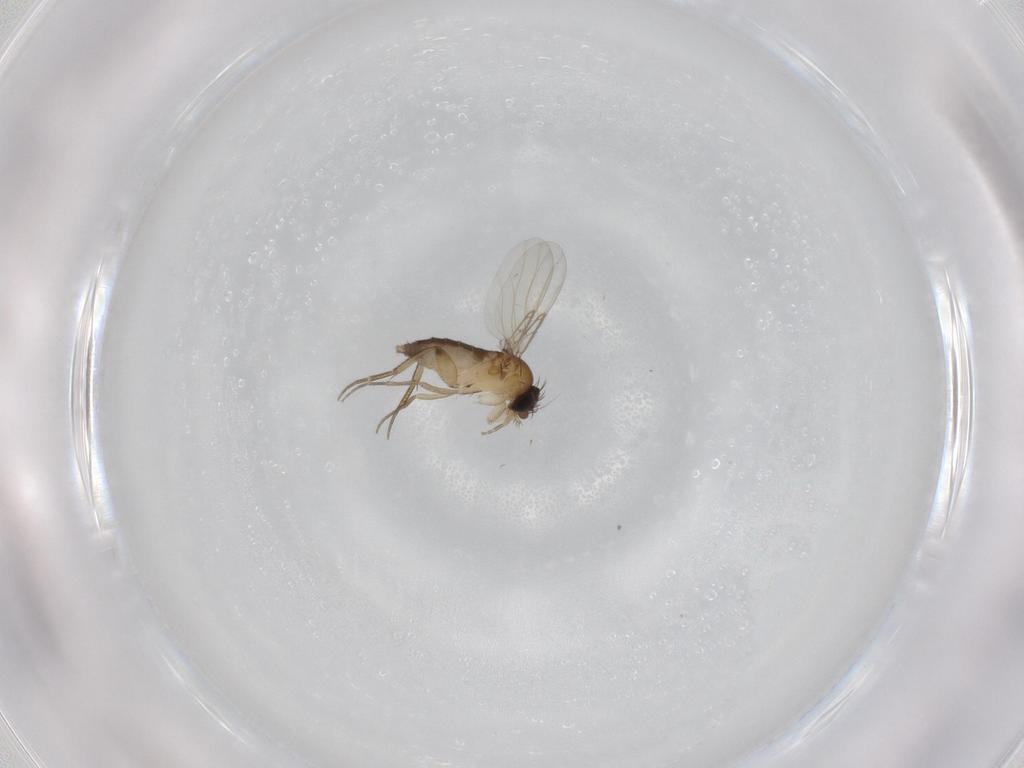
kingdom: Animalia
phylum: Arthropoda
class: Insecta
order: Diptera
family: Phoridae
